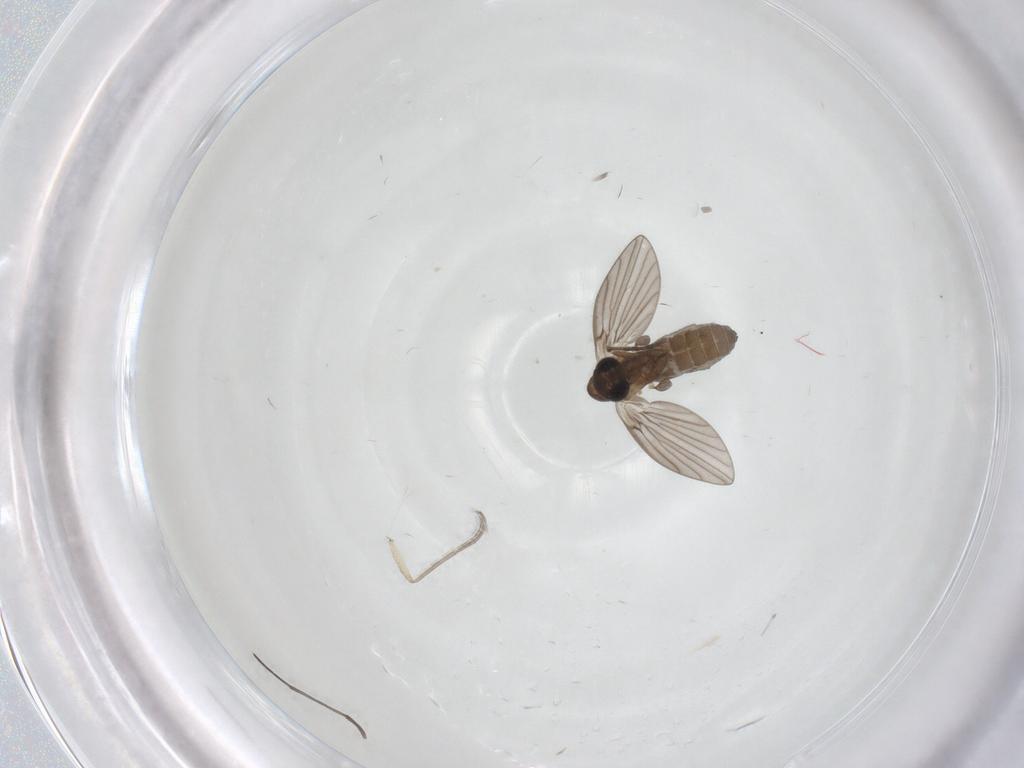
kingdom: Animalia
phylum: Arthropoda
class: Insecta
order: Diptera
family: Sciaridae
